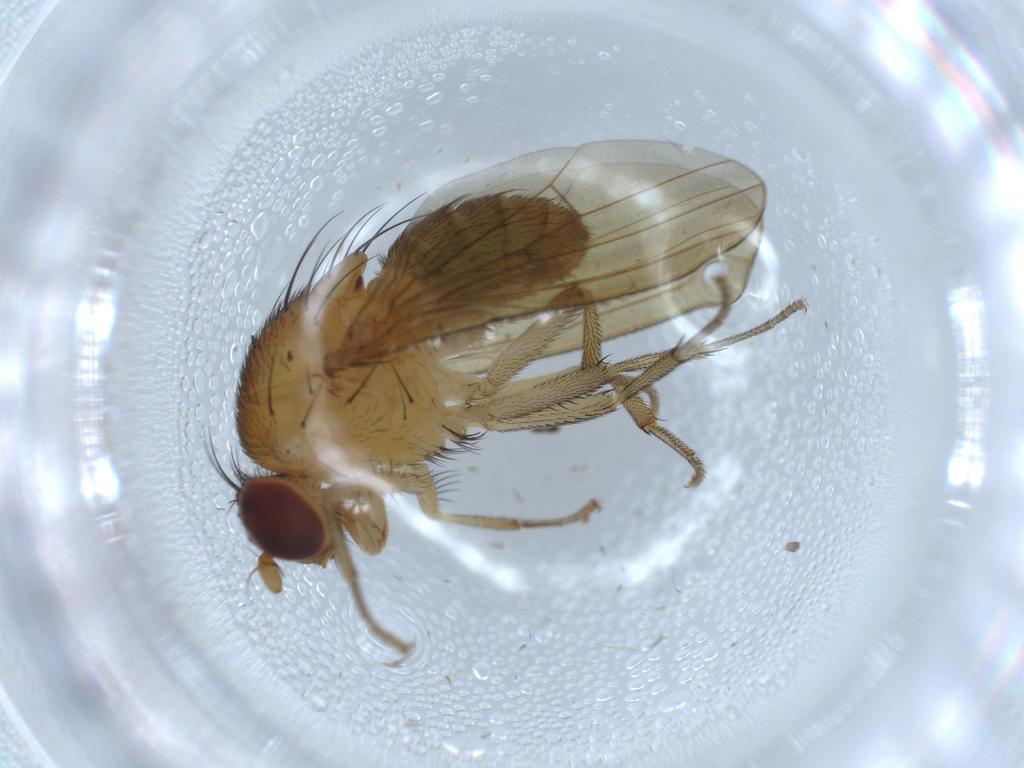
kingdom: Animalia
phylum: Arthropoda
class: Insecta
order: Diptera
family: Lauxaniidae
